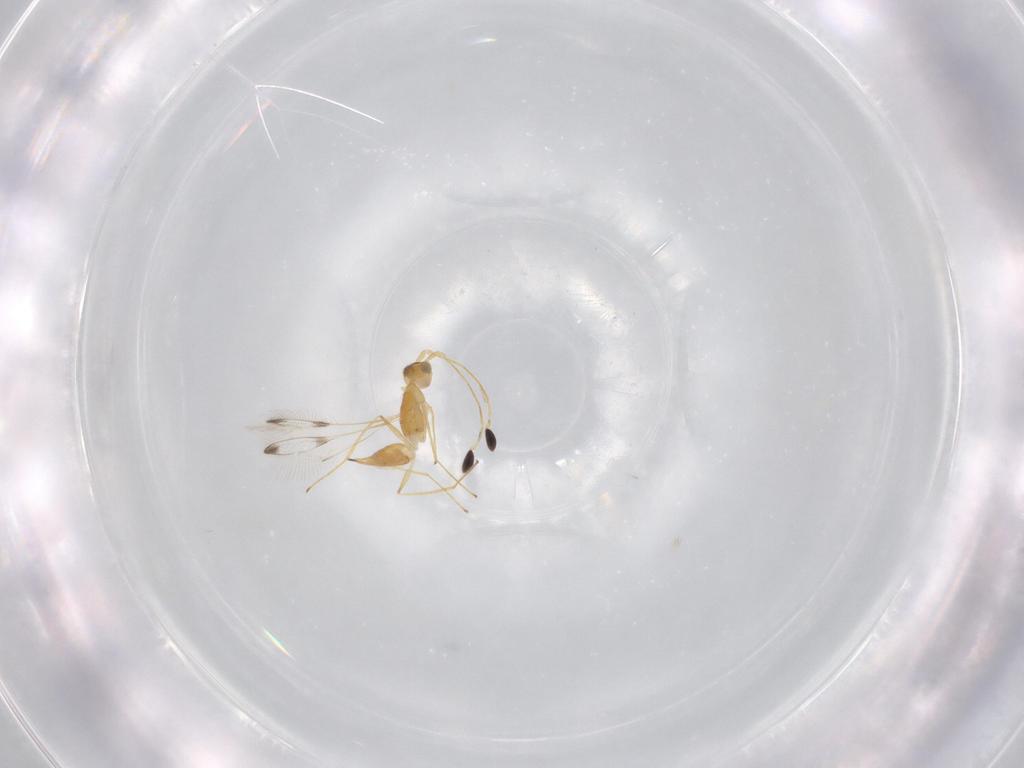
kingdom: Animalia
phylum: Arthropoda
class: Insecta
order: Hymenoptera
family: Mymaridae
